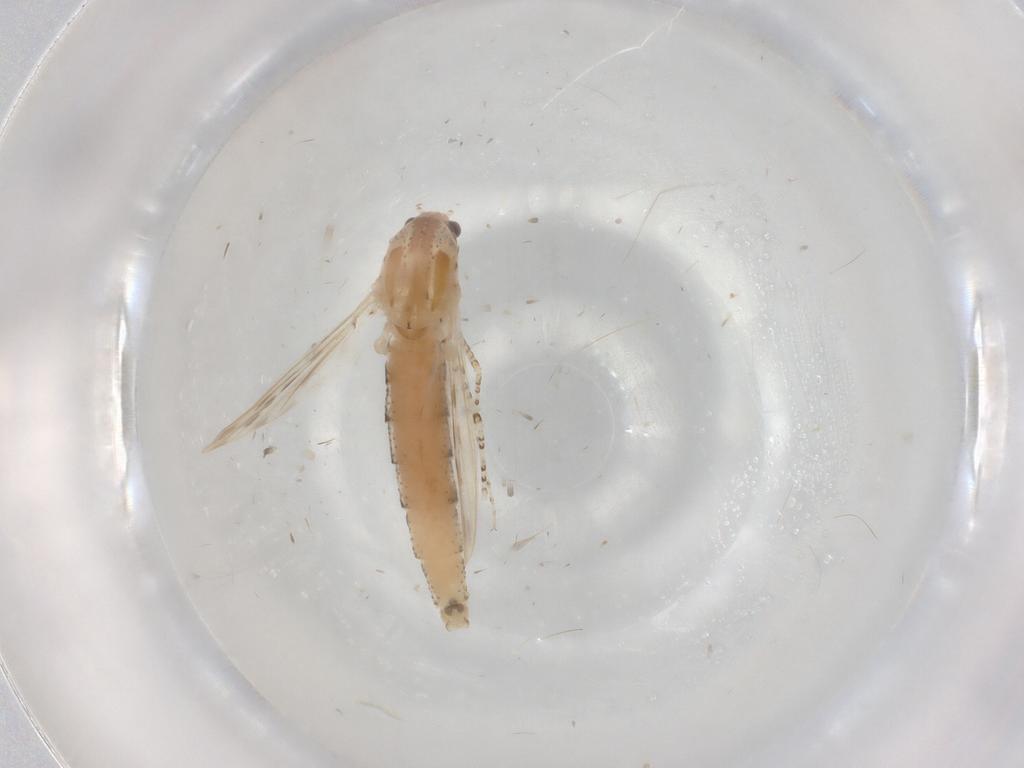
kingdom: Animalia
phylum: Arthropoda
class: Insecta
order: Diptera
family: Chaoboridae
